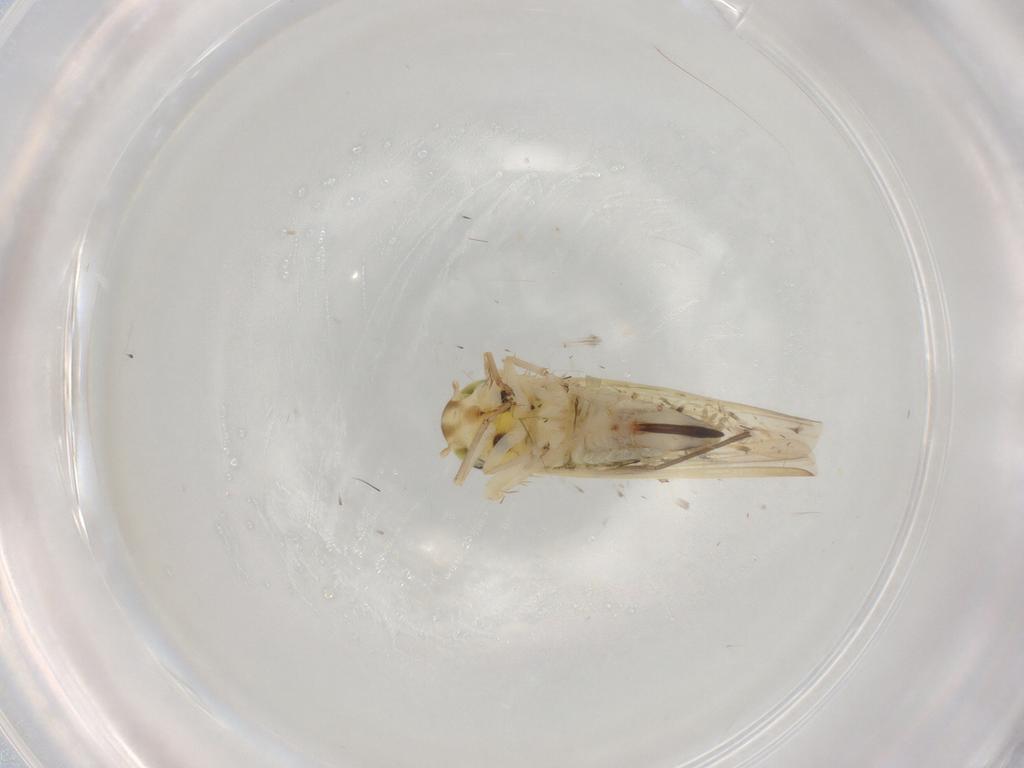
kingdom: Animalia
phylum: Arthropoda
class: Insecta
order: Hemiptera
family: Cicadellidae
